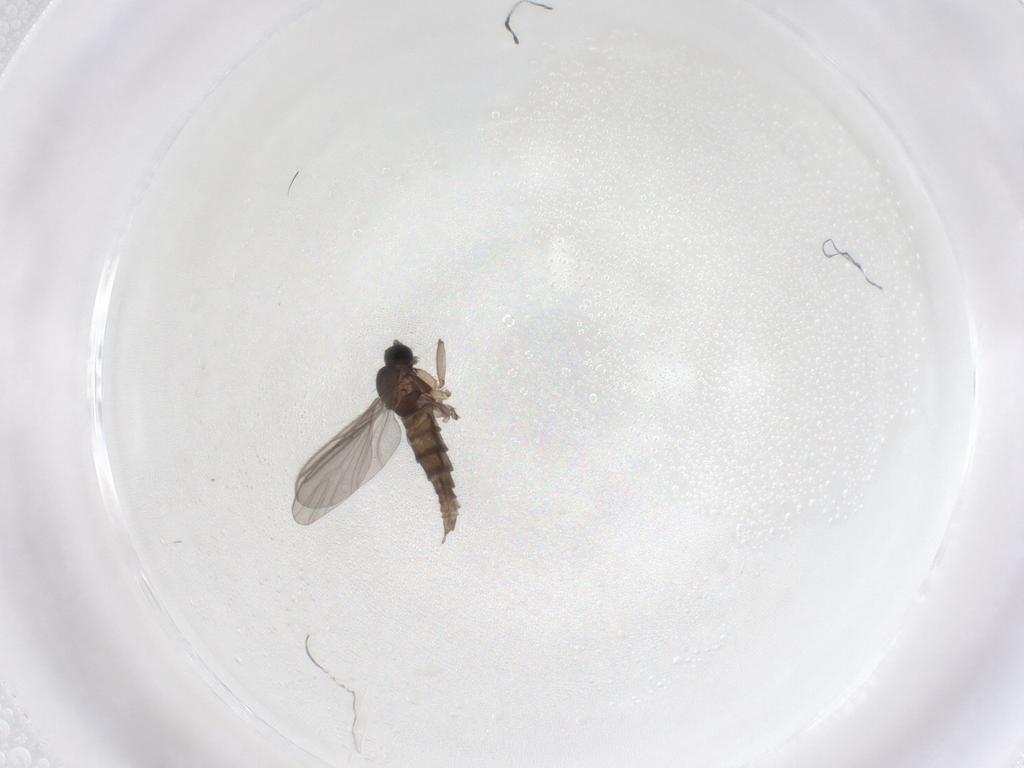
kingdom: Animalia
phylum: Arthropoda
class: Insecta
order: Diptera
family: Sciaridae
